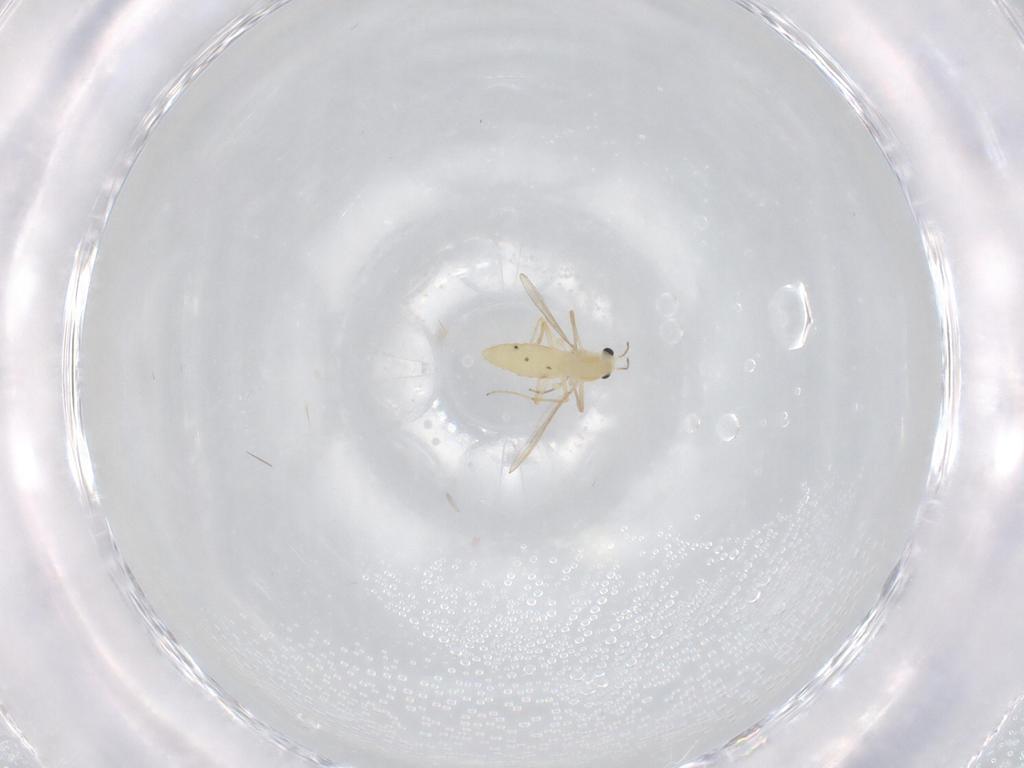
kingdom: Animalia
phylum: Arthropoda
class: Insecta
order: Diptera
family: Chironomidae
